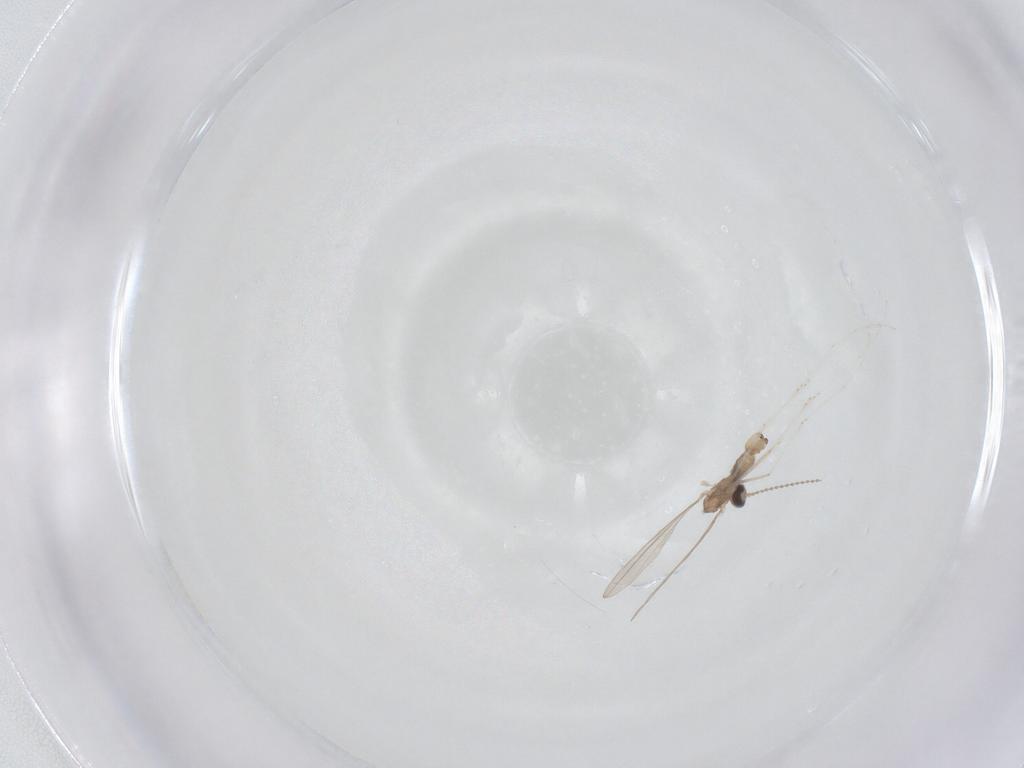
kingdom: Animalia
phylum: Arthropoda
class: Insecta
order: Diptera
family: Cecidomyiidae
